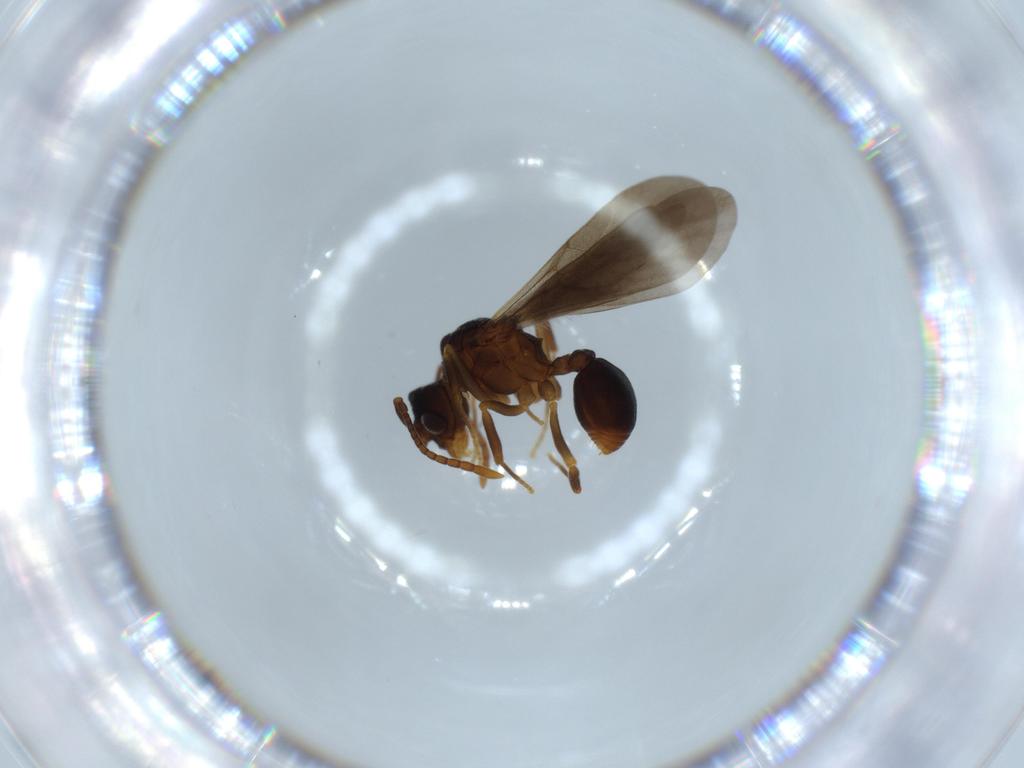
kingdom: Animalia
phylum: Arthropoda
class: Insecta
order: Hymenoptera
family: Formicidae
